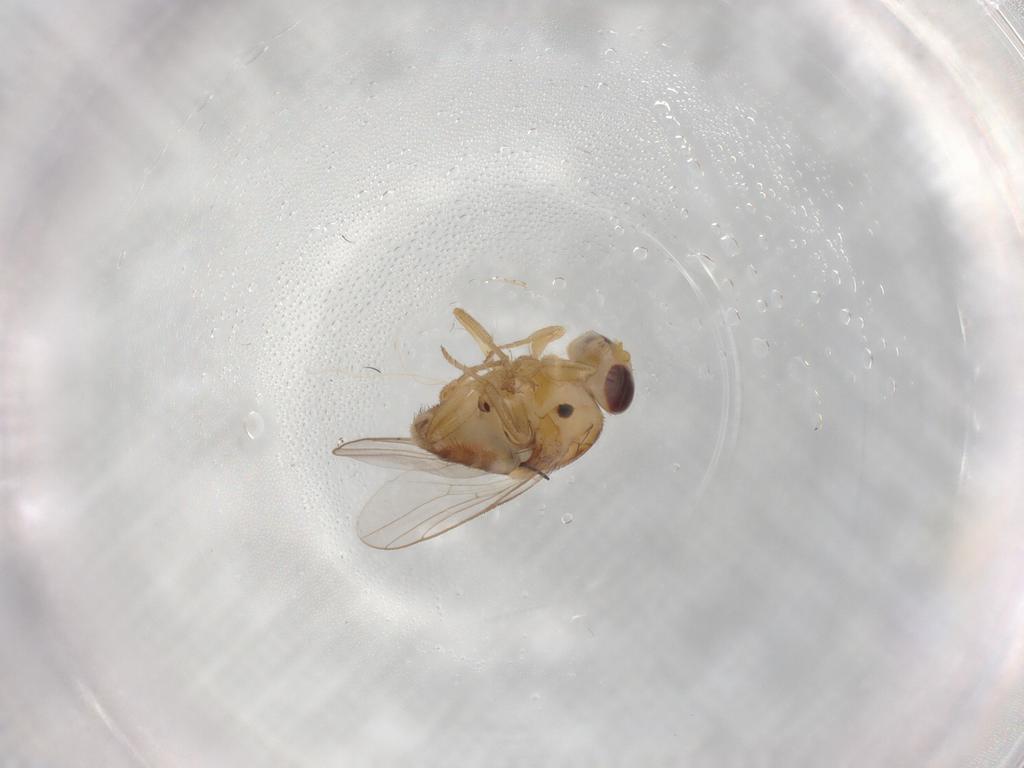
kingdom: Animalia
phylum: Arthropoda
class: Insecta
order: Diptera
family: Chloropidae
